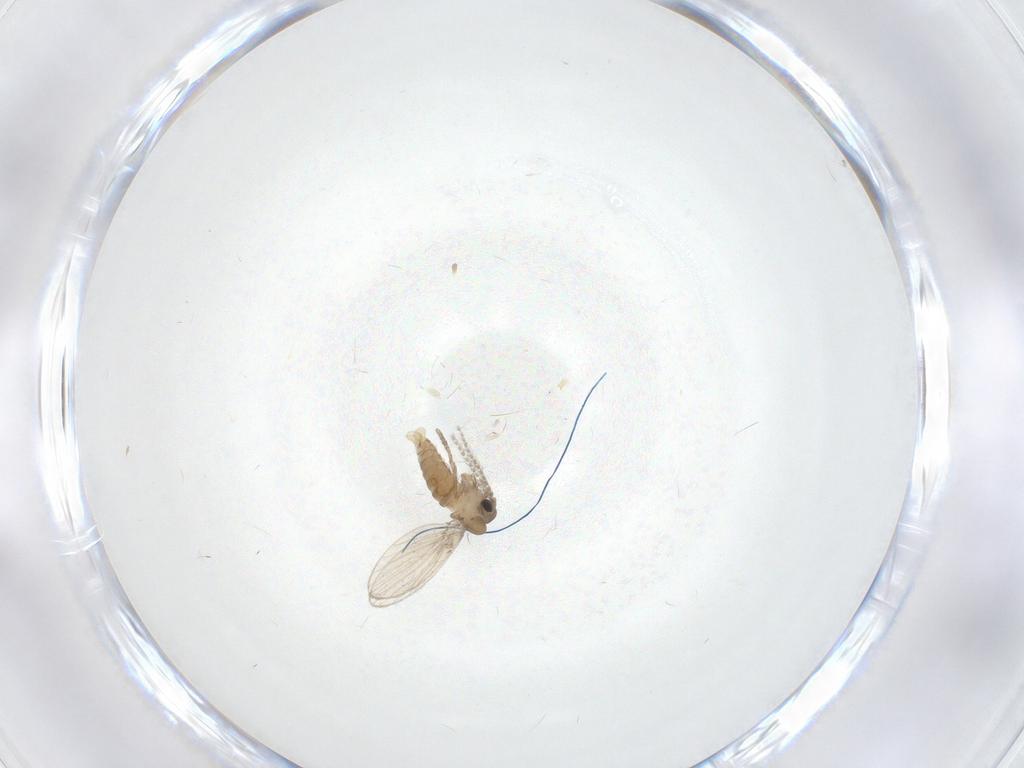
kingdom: Animalia
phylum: Arthropoda
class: Insecta
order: Diptera
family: Chironomidae
